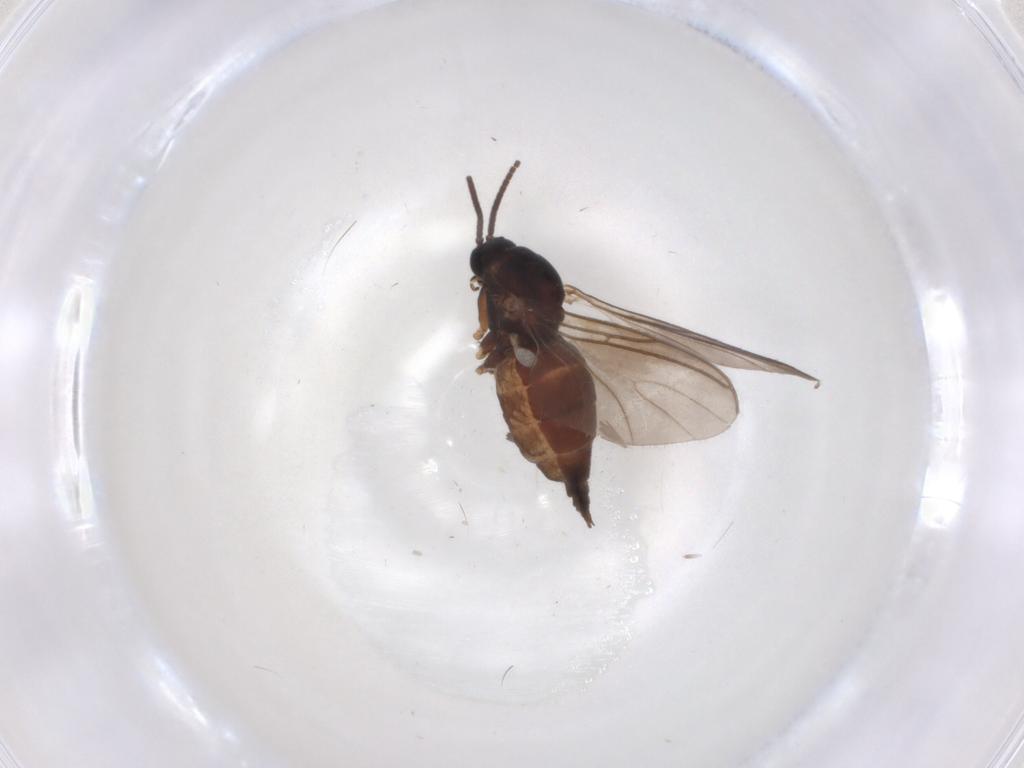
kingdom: Animalia
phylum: Arthropoda
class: Insecta
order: Diptera
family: Sciaridae
